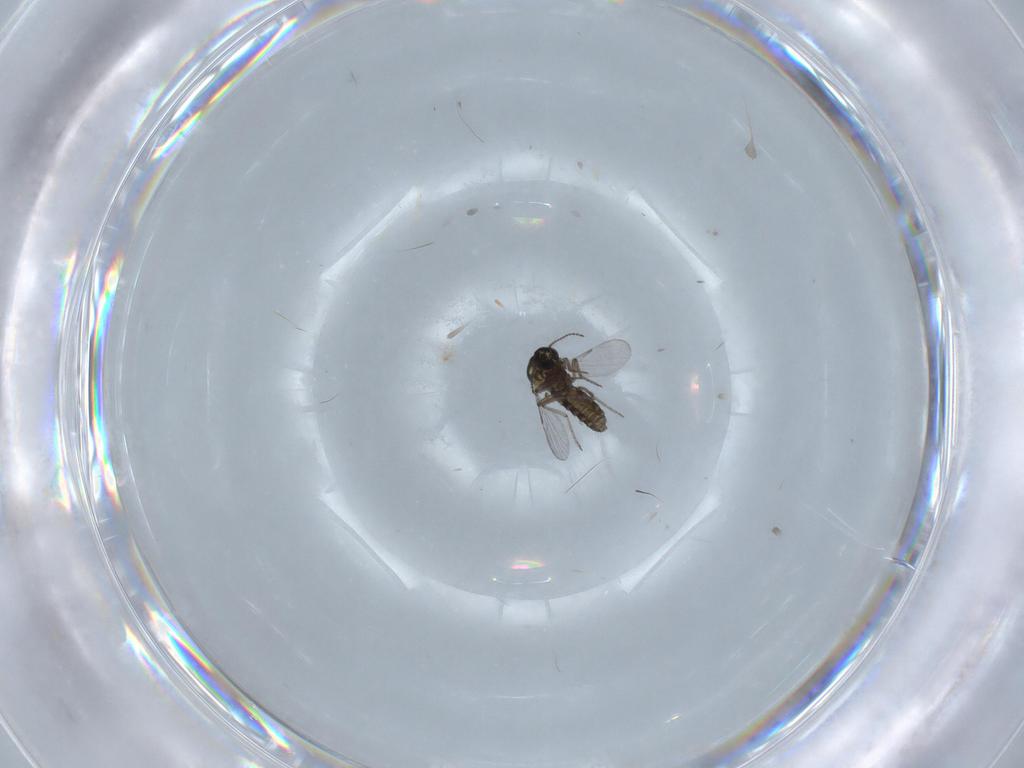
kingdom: Animalia
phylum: Arthropoda
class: Insecta
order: Diptera
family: Ceratopogonidae
